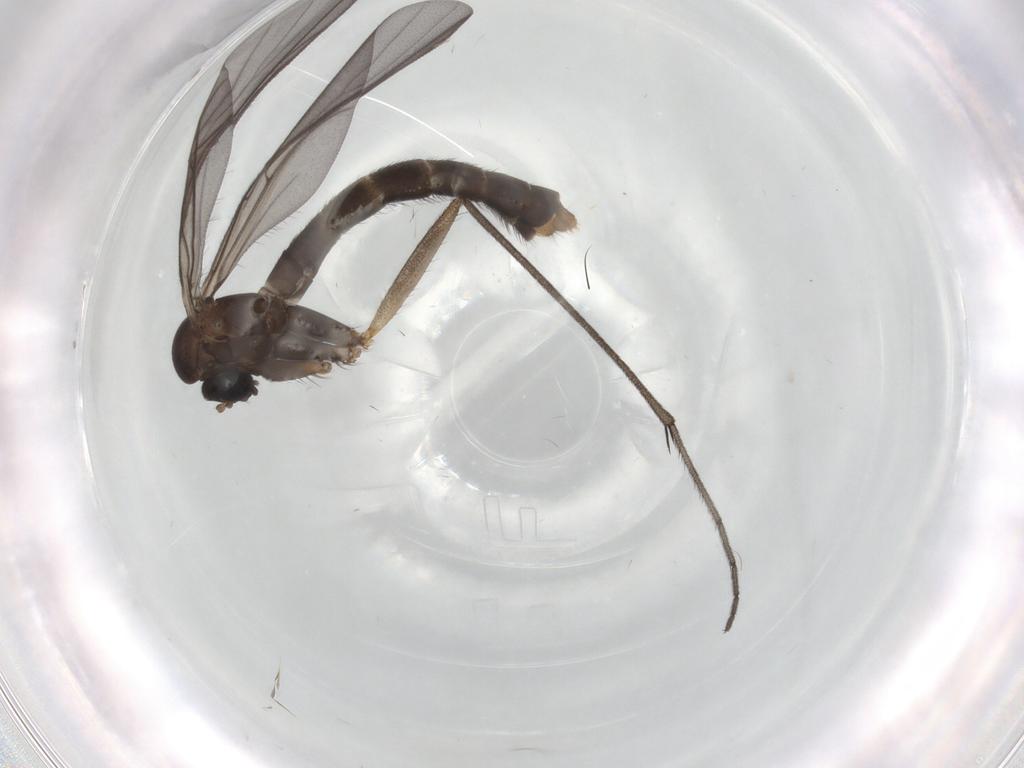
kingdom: Animalia
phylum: Arthropoda
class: Insecta
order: Diptera
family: Keroplatidae
